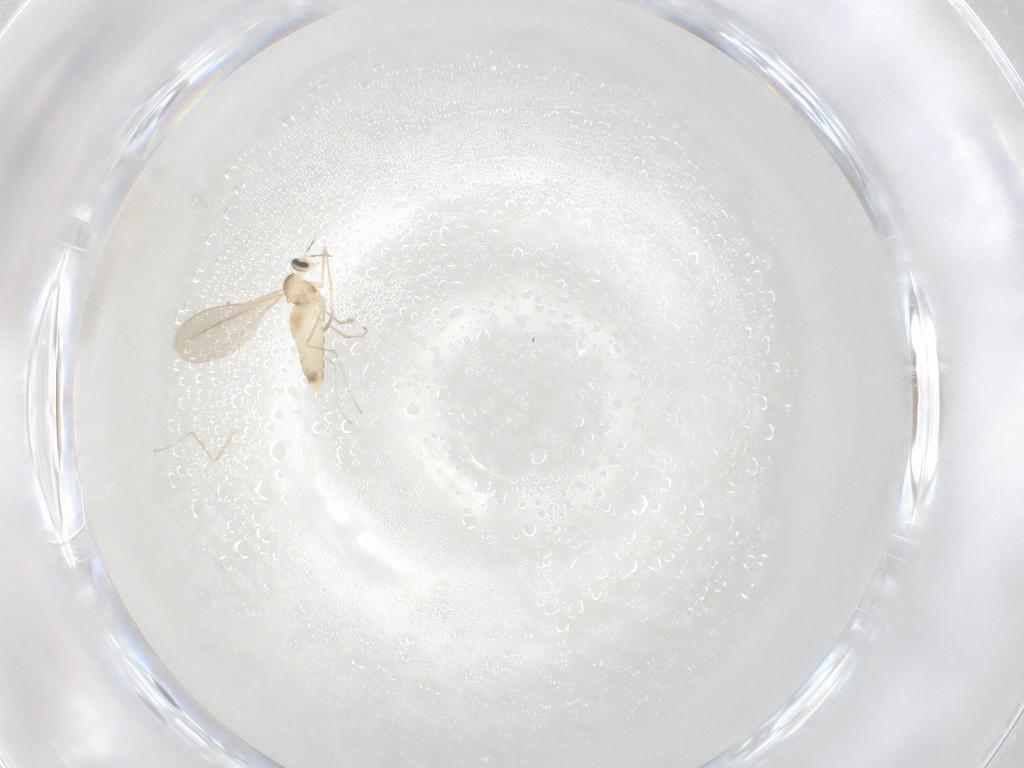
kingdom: Animalia
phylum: Arthropoda
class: Insecta
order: Diptera
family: Cecidomyiidae
